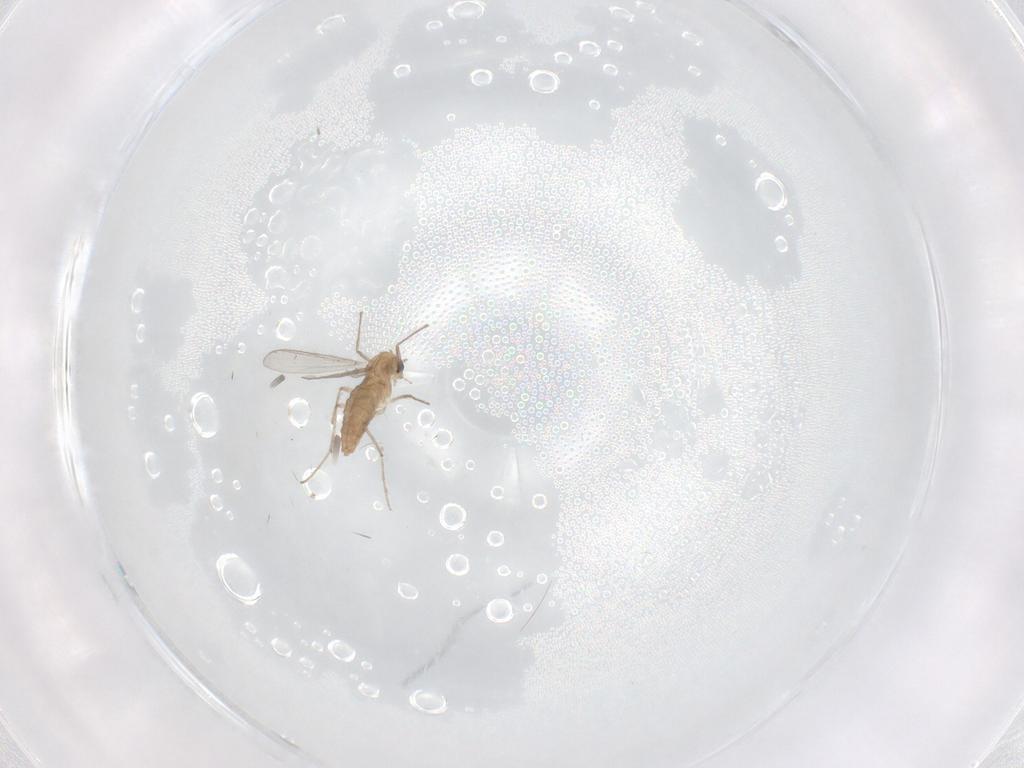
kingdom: Animalia
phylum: Arthropoda
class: Insecta
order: Diptera
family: Chironomidae
